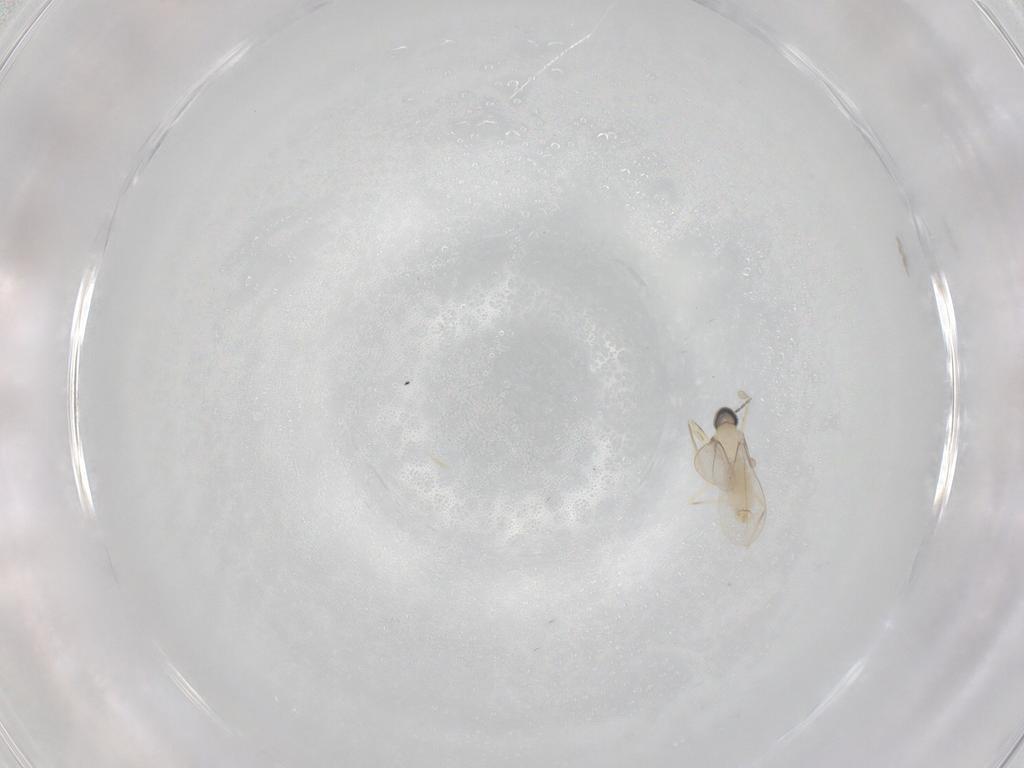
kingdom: Animalia
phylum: Arthropoda
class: Insecta
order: Diptera
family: Cecidomyiidae
